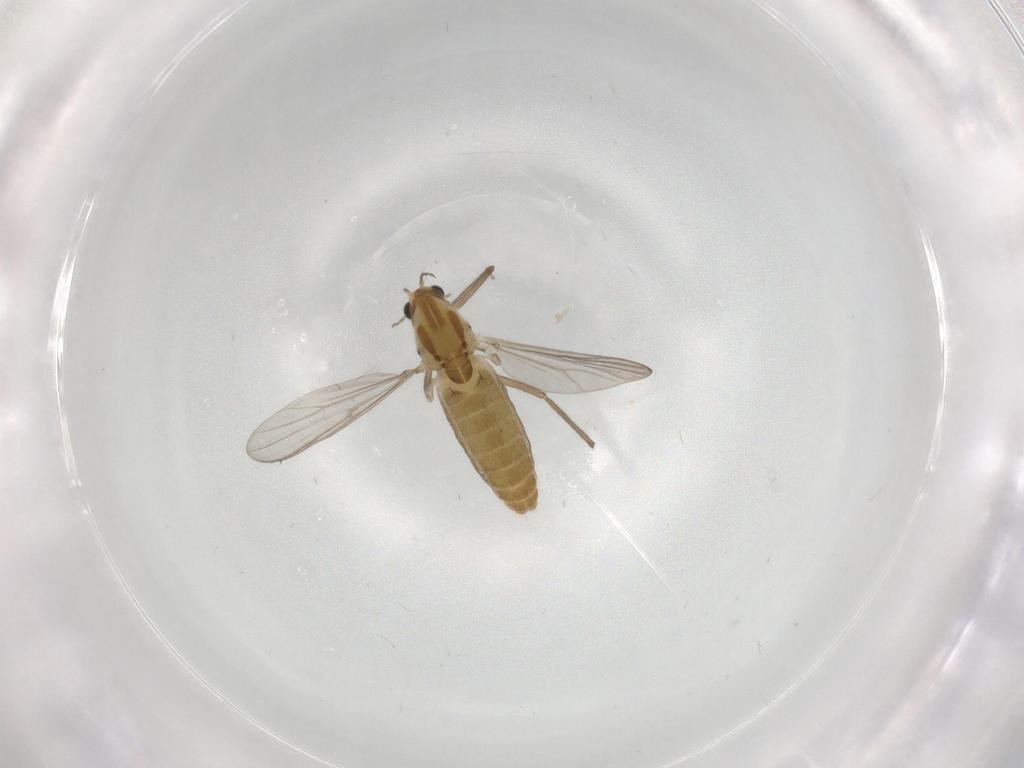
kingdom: Animalia
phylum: Arthropoda
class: Insecta
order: Diptera
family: Chironomidae
